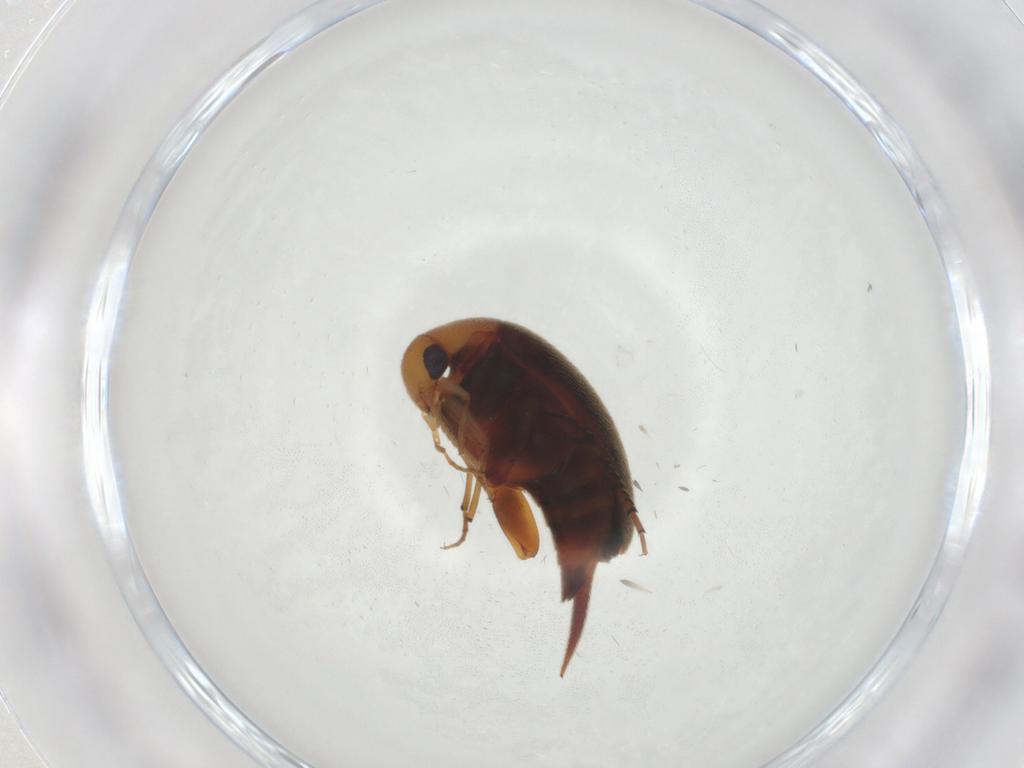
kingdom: Animalia
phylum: Arthropoda
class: Insecta
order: Coleoptera
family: Mordellidae
